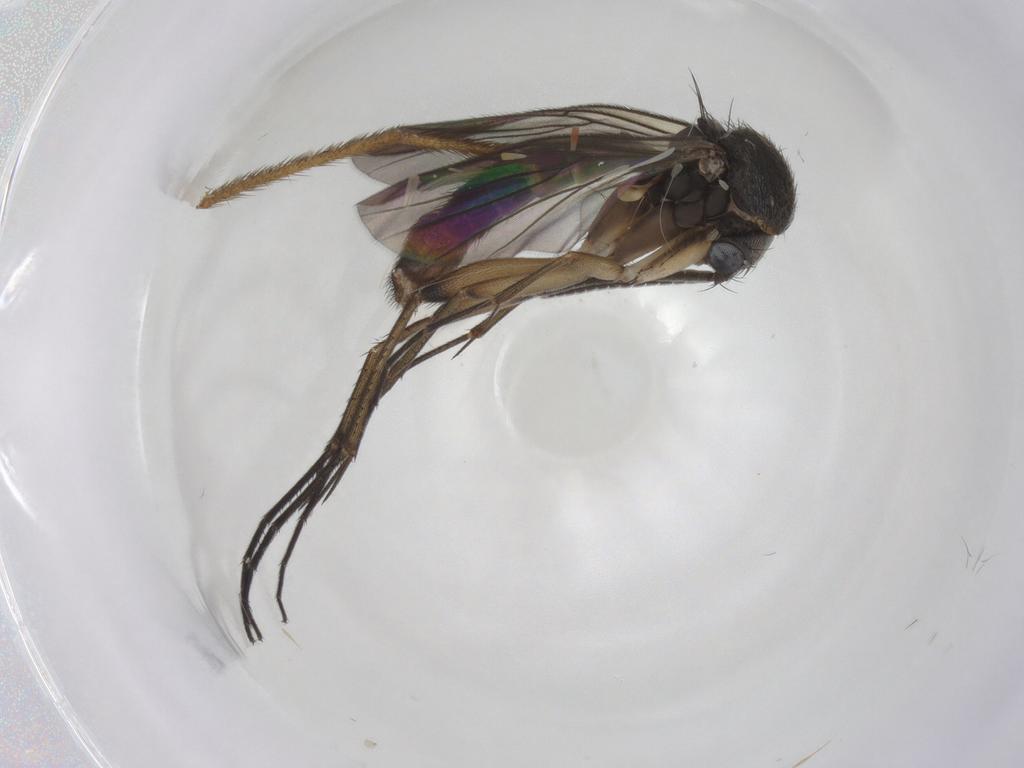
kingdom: Animalia
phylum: Arthropoda
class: Insecta
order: Diptera
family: Mycetophilidae
